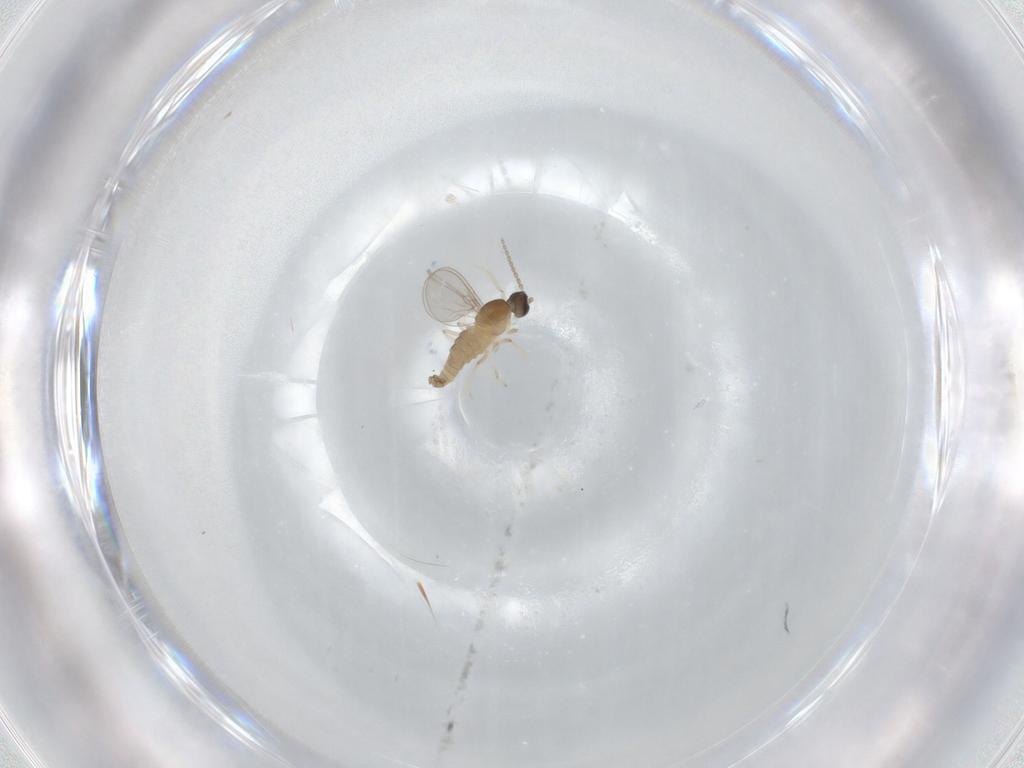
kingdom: Animalia
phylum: Arthropoda
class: Insecta
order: Diptera
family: Cecidomyiidae
